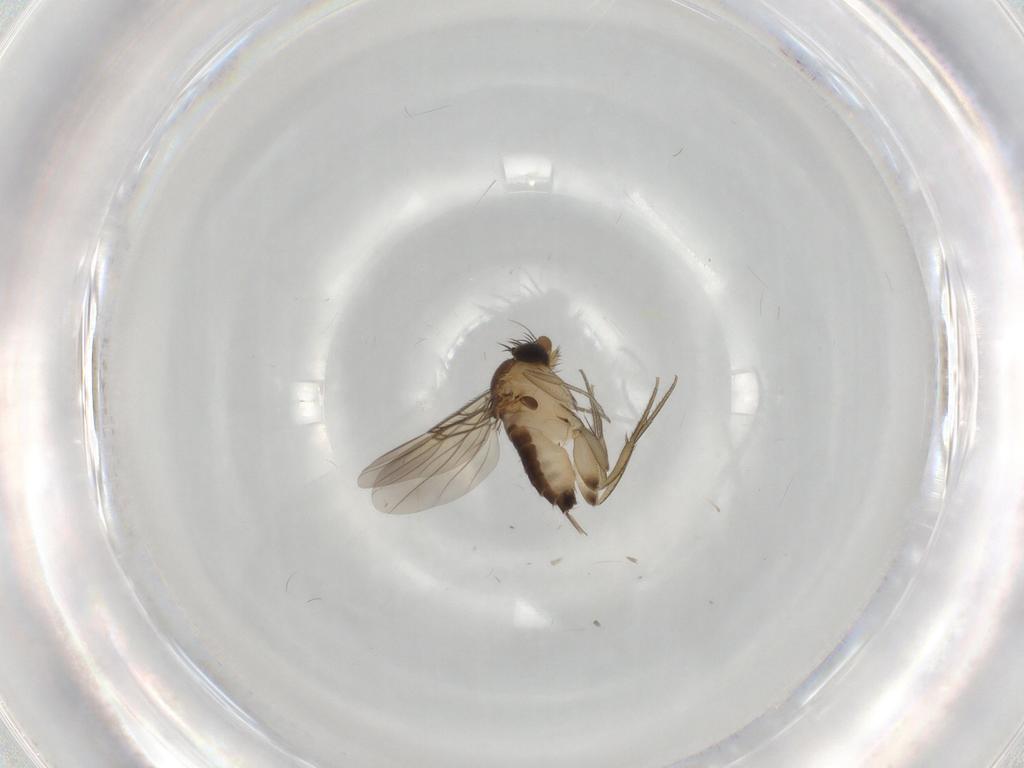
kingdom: Animalia
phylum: Arthropoda
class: Insecta
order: Diptera
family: Phoridae
